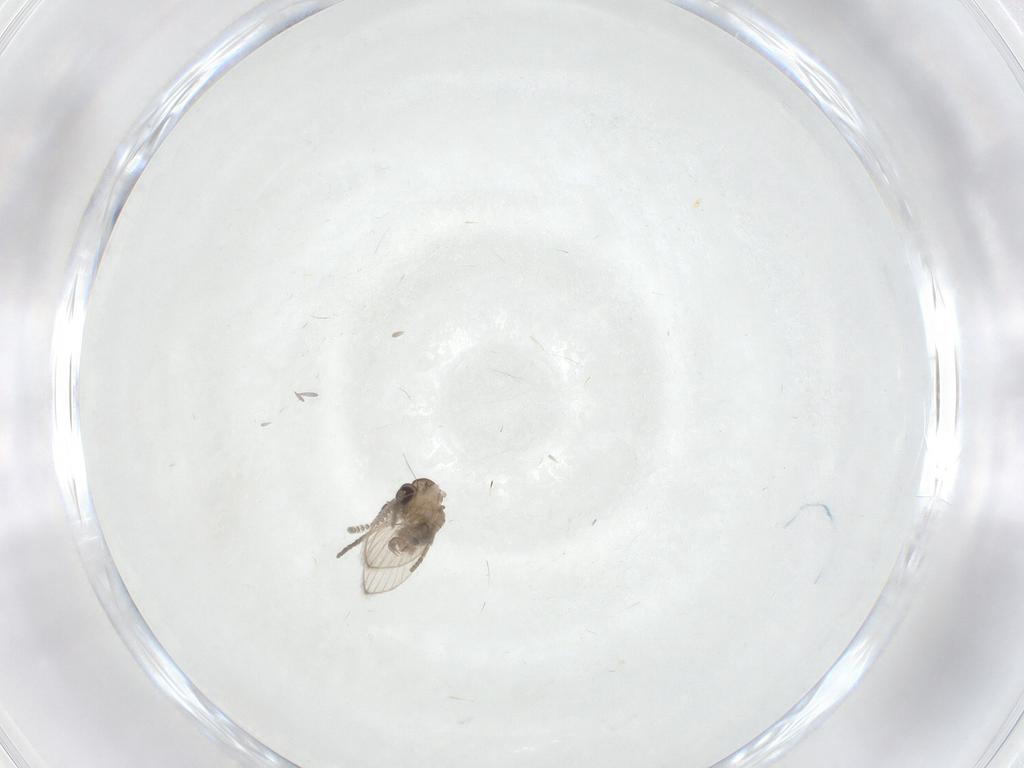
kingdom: Animalia
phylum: Arthropoda
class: Insecta
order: Diptera
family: Psychodidae
